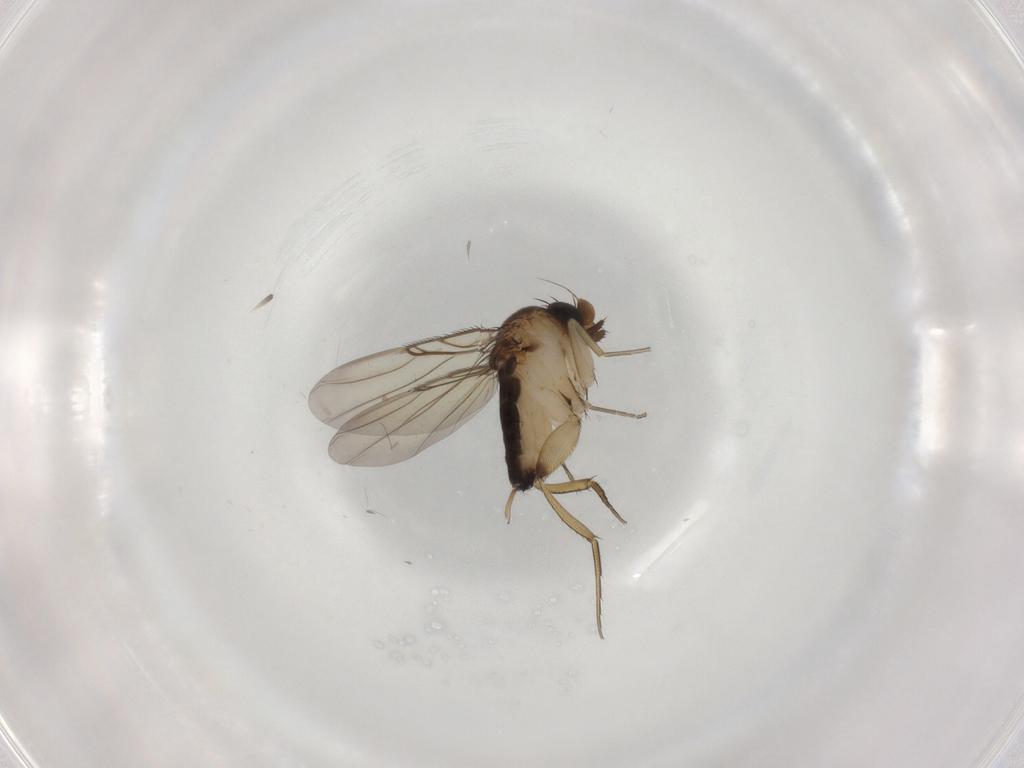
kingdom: Animalia
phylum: Arthropoda
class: Insecta
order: Diptera
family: Phoridae
